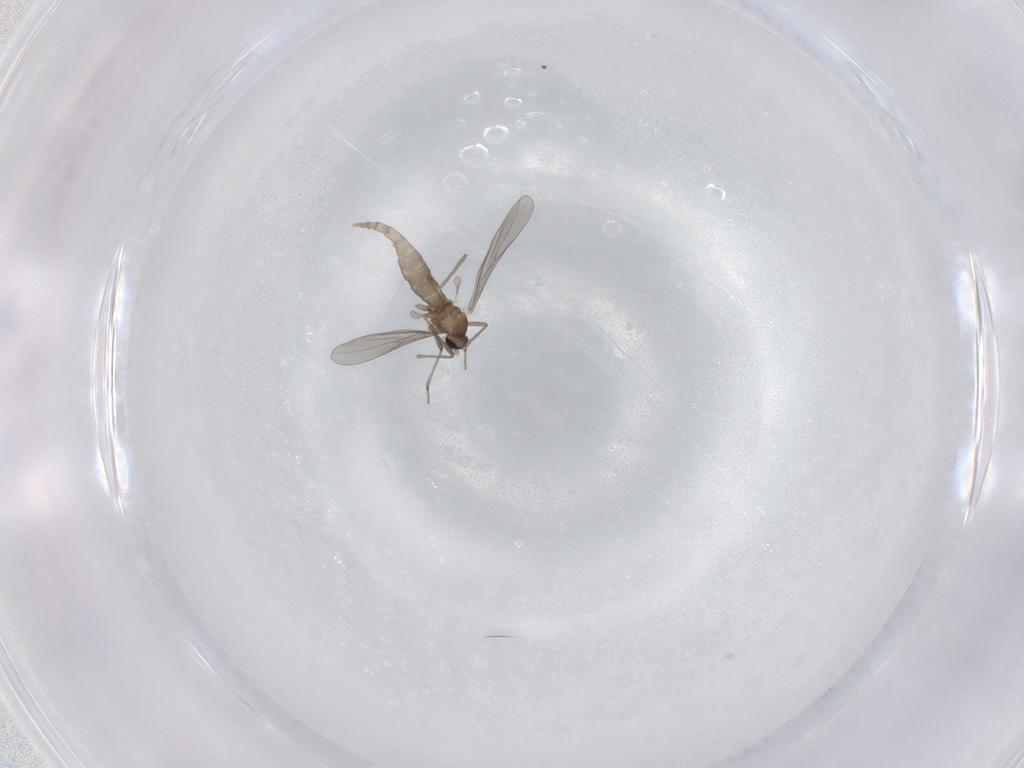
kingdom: Animalia
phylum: Arthropoda
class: Insecta
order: Diptera
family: Cecidomyiidae
